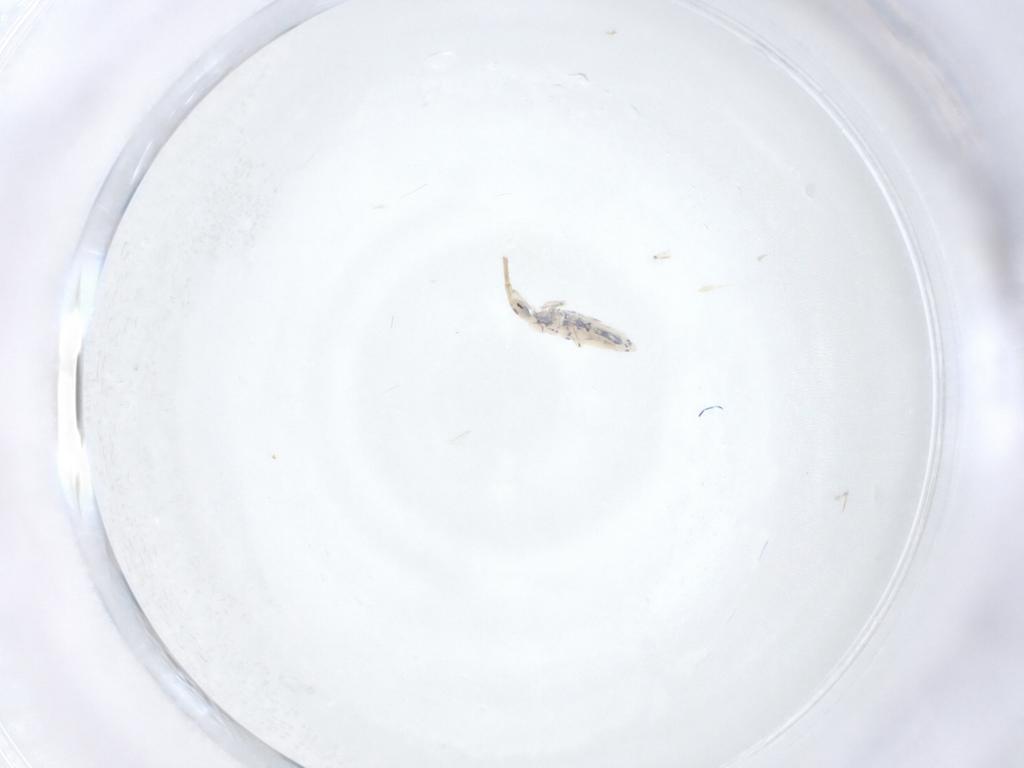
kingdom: Animalia
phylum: Arthropoda
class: Collembola
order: Entomobryomorpha
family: Entomobryidae
